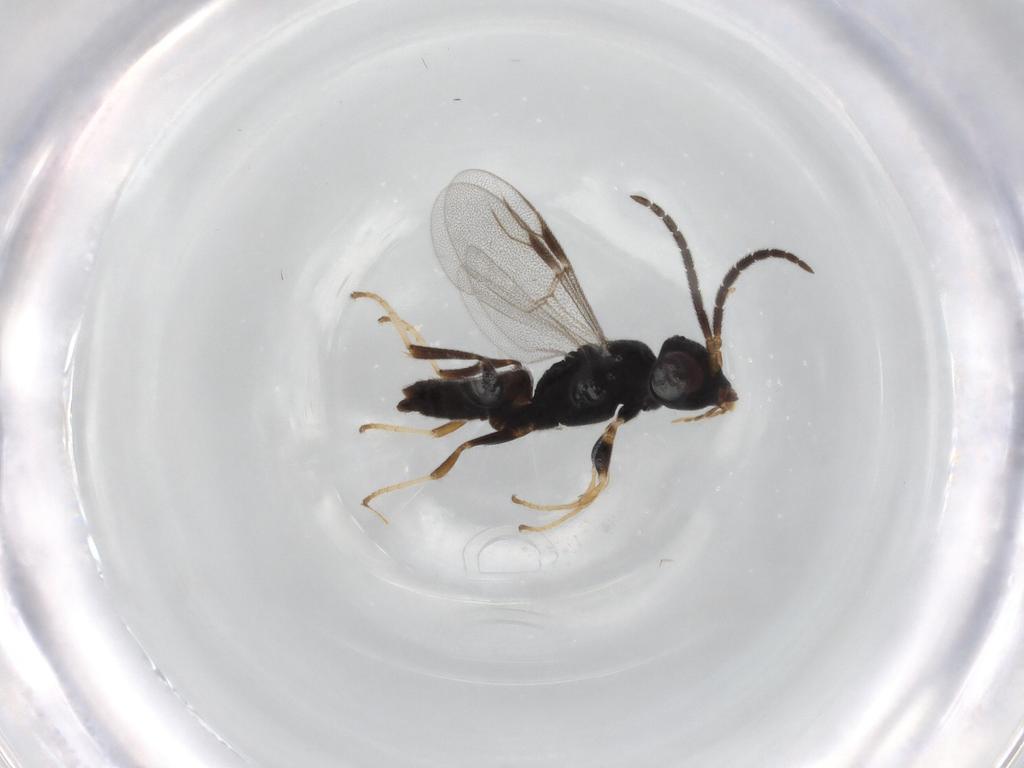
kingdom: Animalia
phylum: Arthropoda
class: Insecta
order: Hymenoptera
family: Dryinidae
